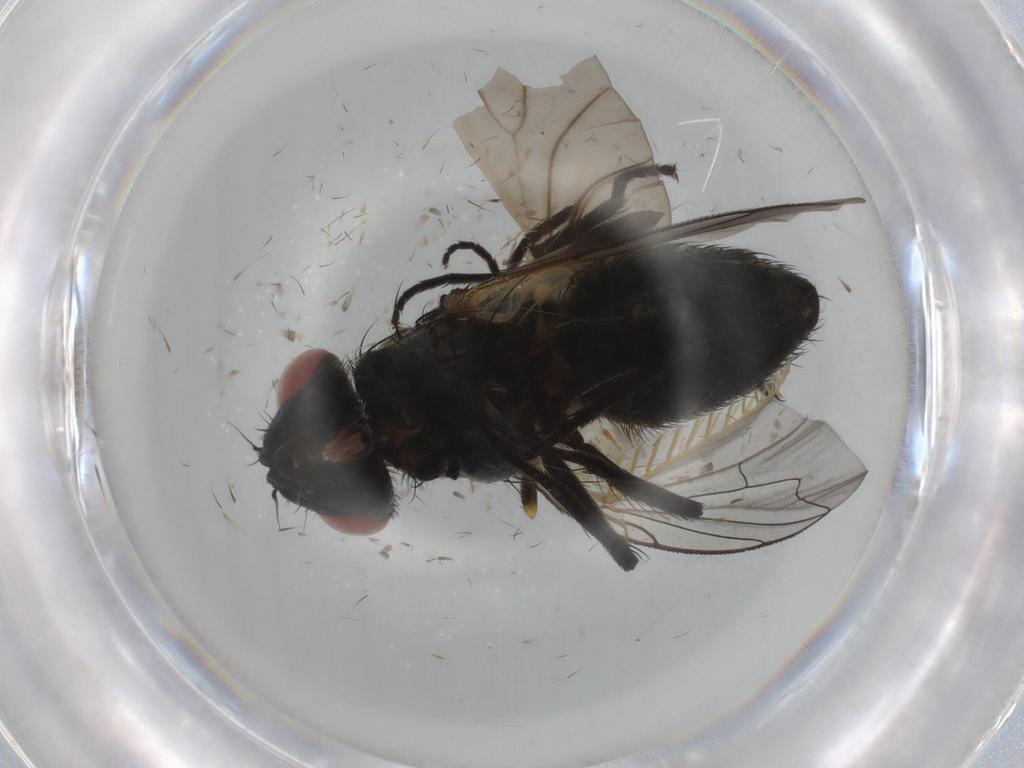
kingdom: Animalia
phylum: Arthropoda
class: Insecta
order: Diptera
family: Sarcophagidae
